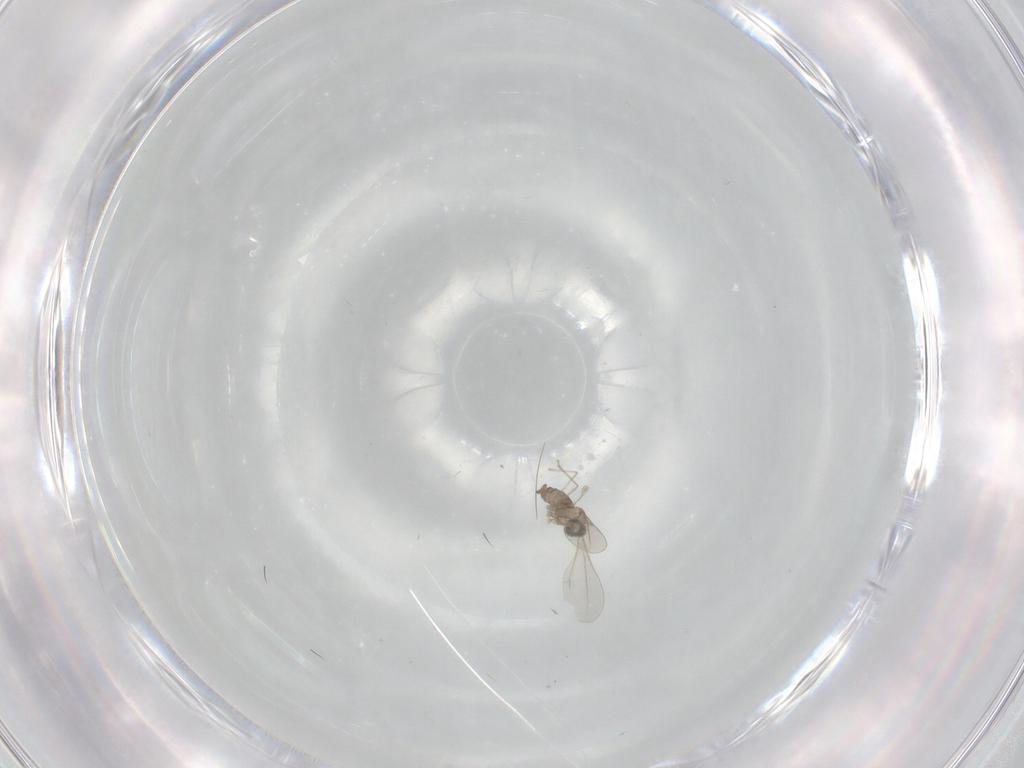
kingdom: Animalia
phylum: Arthropoda
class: Insecta
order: Diptera
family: Cecidomyiidae
